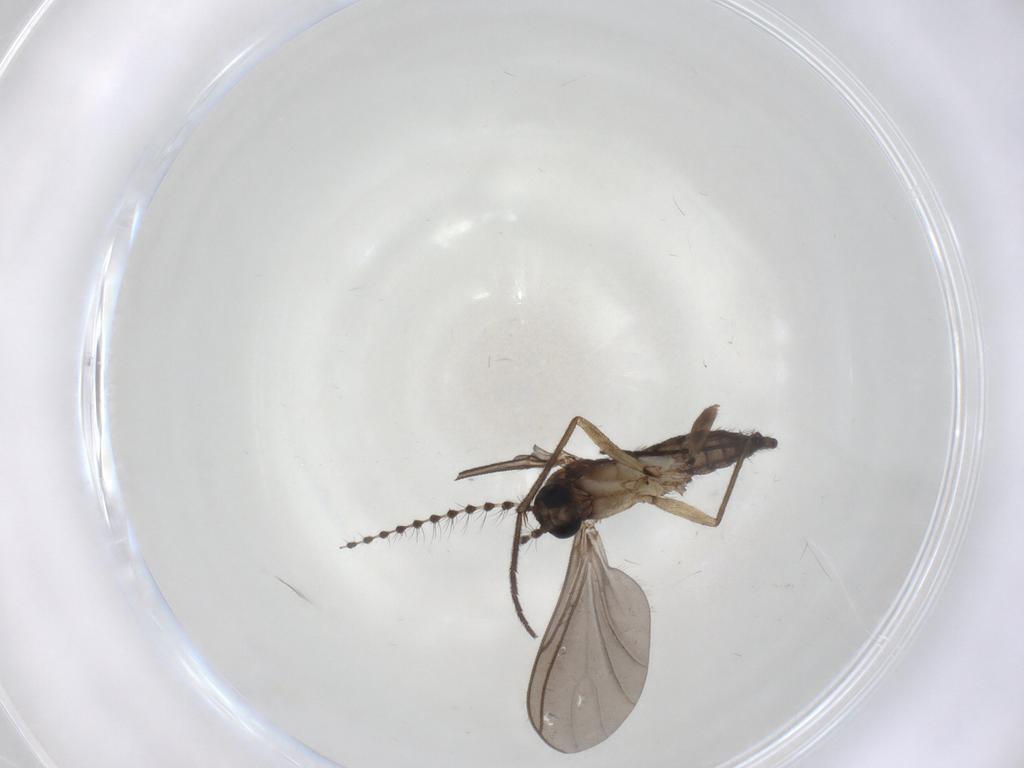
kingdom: Animalia
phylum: Arthropoda
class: Insecta
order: Diptera
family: Sciaridae
